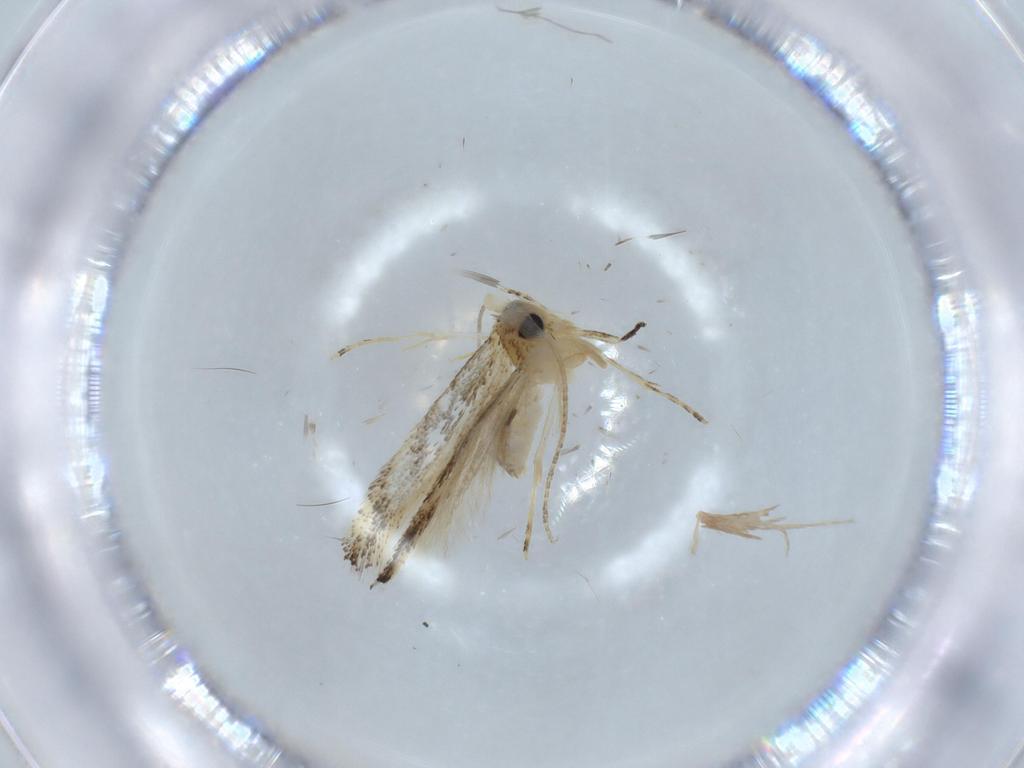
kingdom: Animalia
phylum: Arthropoda
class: Insecta
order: Lepidoptera
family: Bucculatricidae
